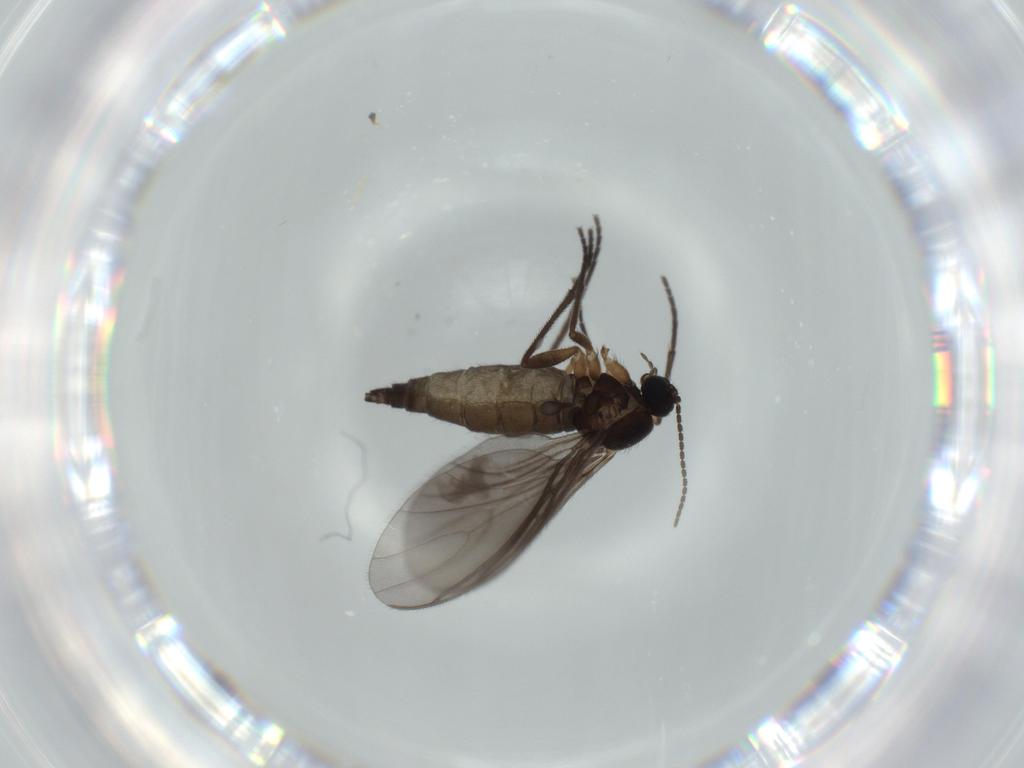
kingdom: Animalia
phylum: Arthropoda
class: Insecta
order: Diptera
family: Sciaridae
